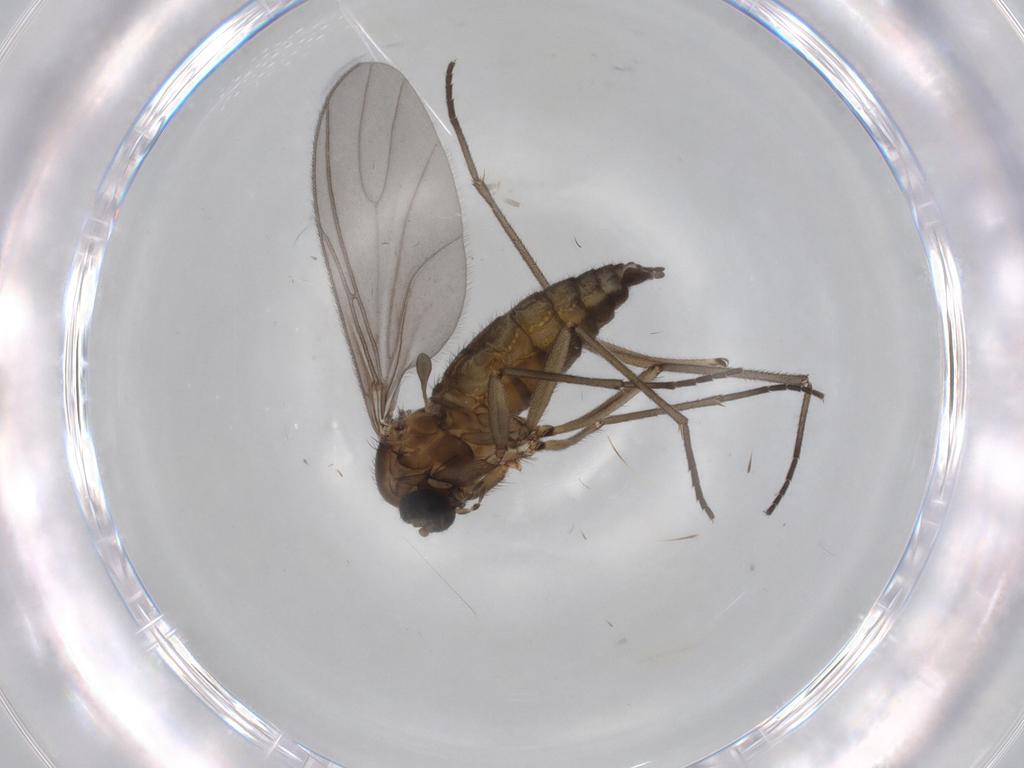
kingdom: Animalia
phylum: Arthropoda
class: Insecta
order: Diptera
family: Sciaridae
